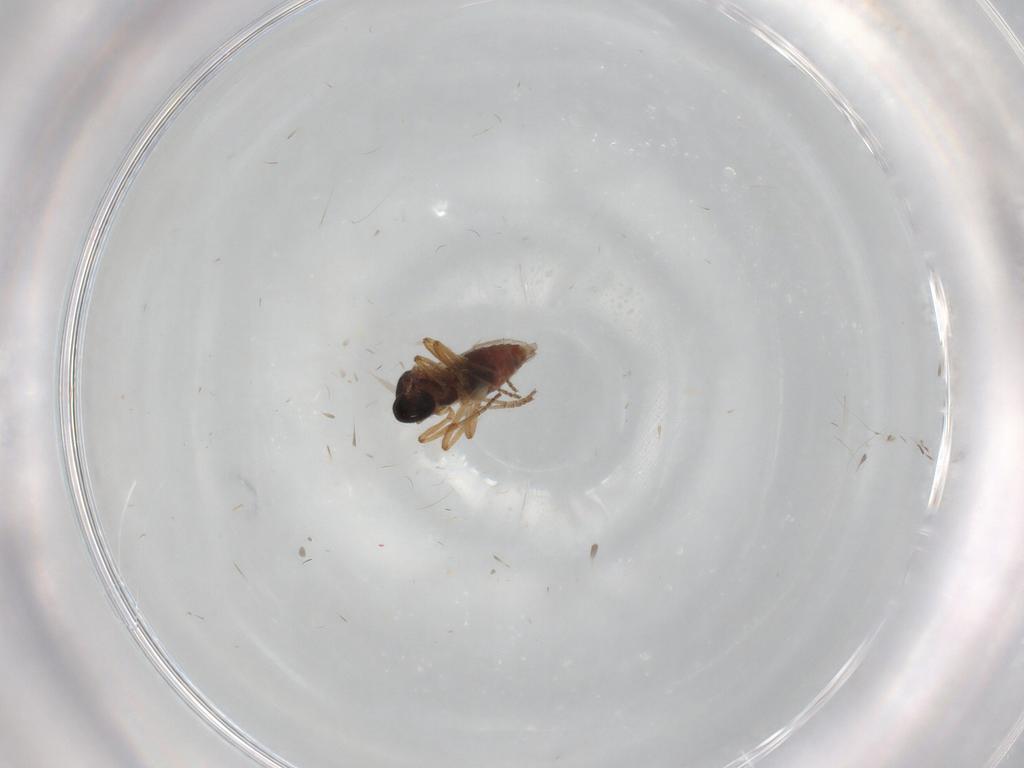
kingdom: Animalia
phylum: Arthropoda
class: Insecta
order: Diptera
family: Ceratopogonidae
